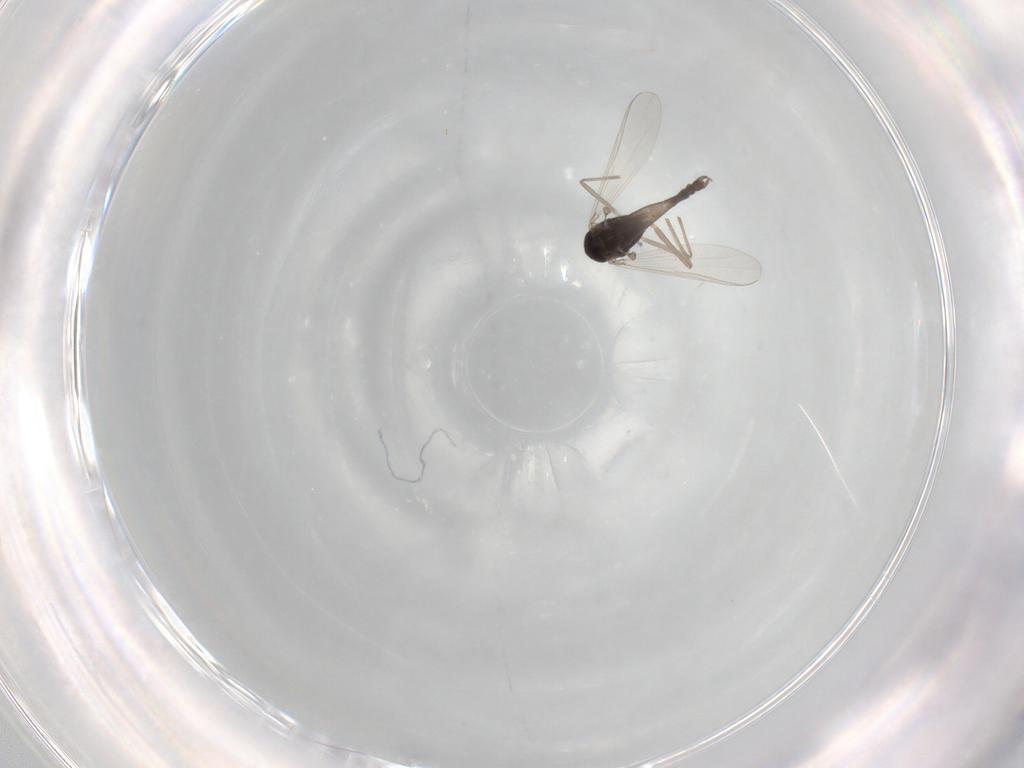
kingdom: Animalia
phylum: Arthropoda
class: Insecta
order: Diptera
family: Chironomidae
